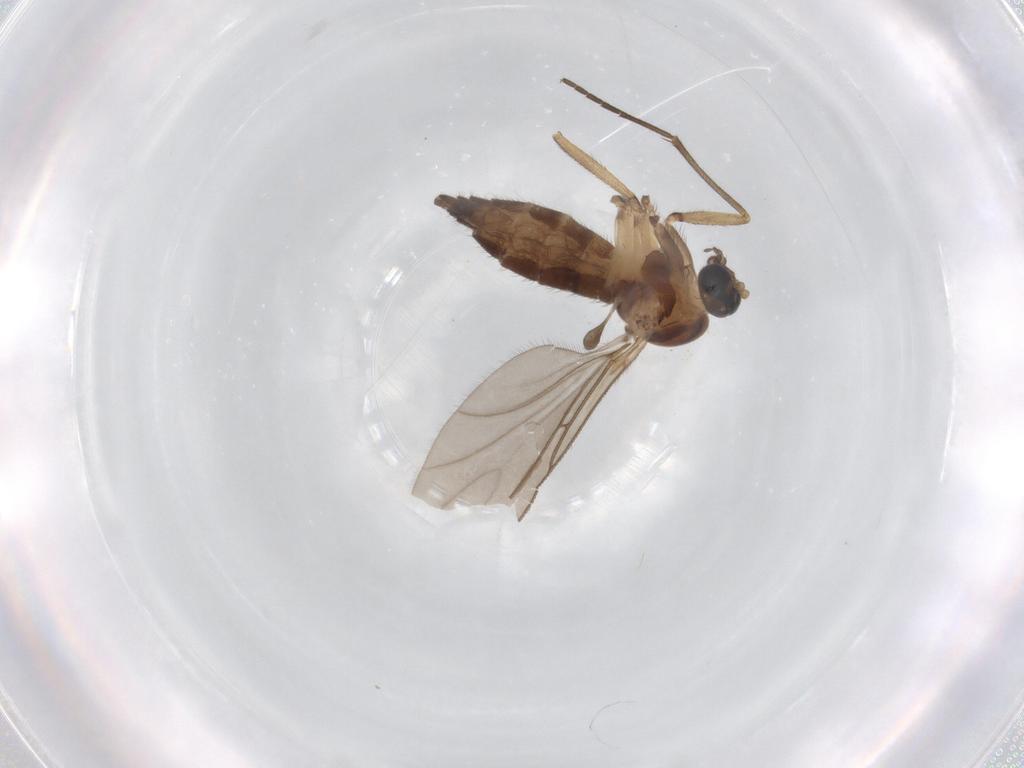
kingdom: Animalia
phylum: Arthropoda
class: Insecta
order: Diptera
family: Sciaridae
